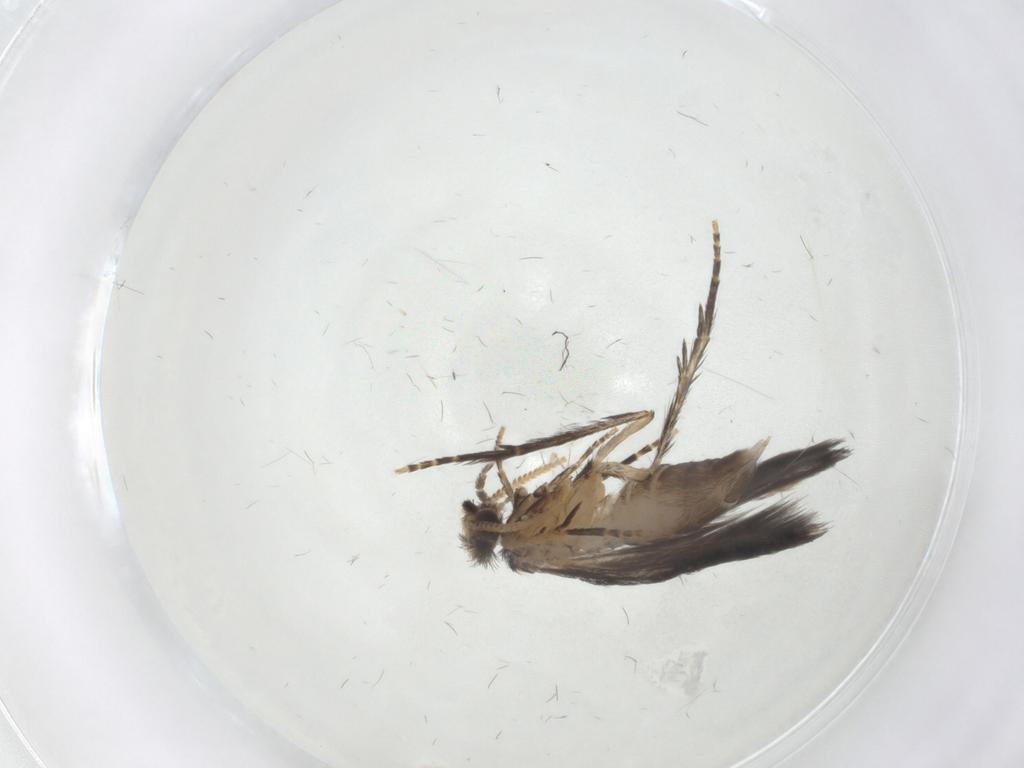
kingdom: Animalia
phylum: Arthropoda
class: Insecta
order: Trichoptera
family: Hydroptilidae
